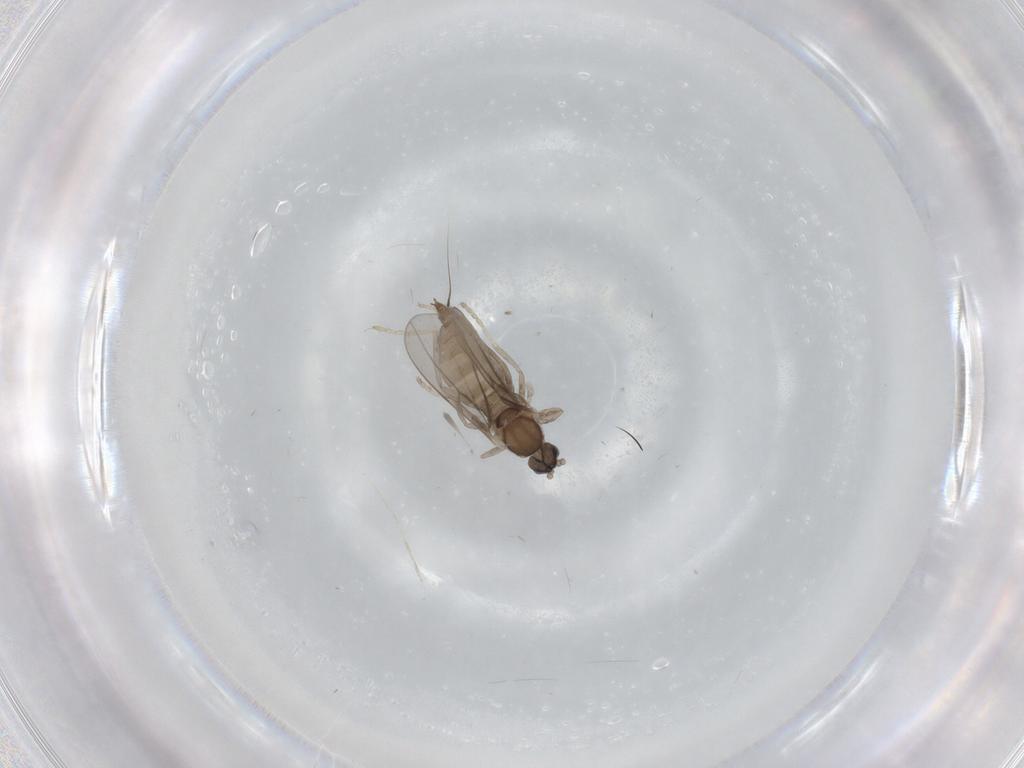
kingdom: Animalia
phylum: Arthropoda
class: Insecta
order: Diptera
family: Cecidomyiidae
